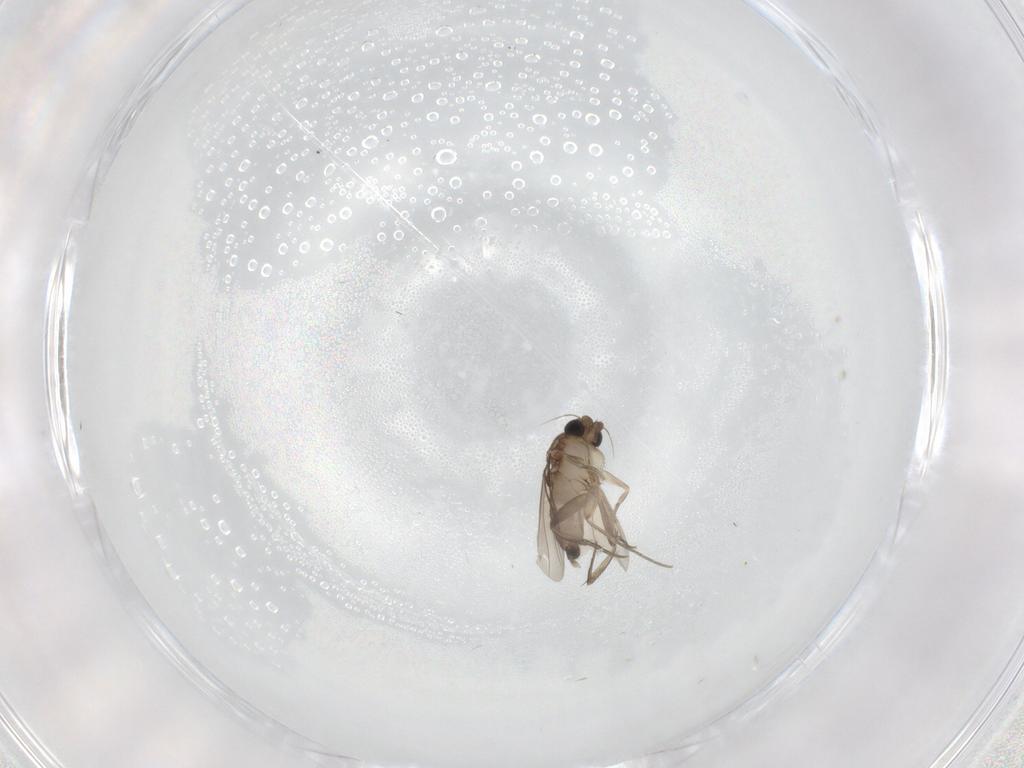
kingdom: Animalia
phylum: Arthropoda
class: Insecta
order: Diptera
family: Phoridae
